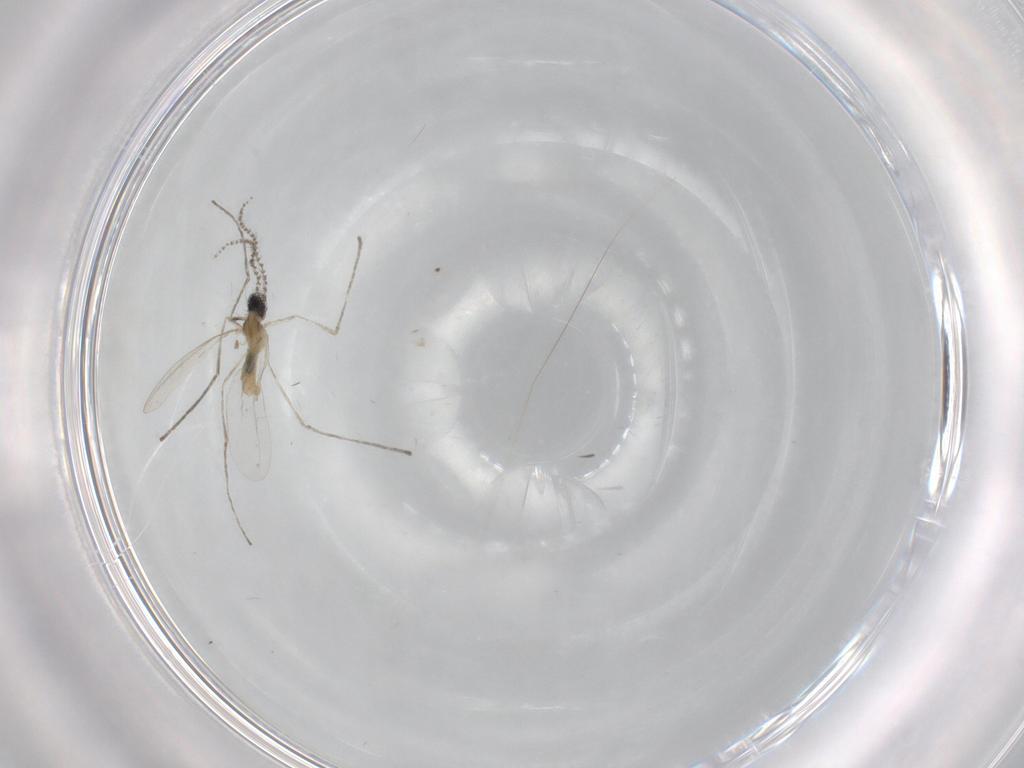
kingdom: Animalia
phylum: Arthropoda
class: Insecta
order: Diptera
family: Cecidomyiidae
